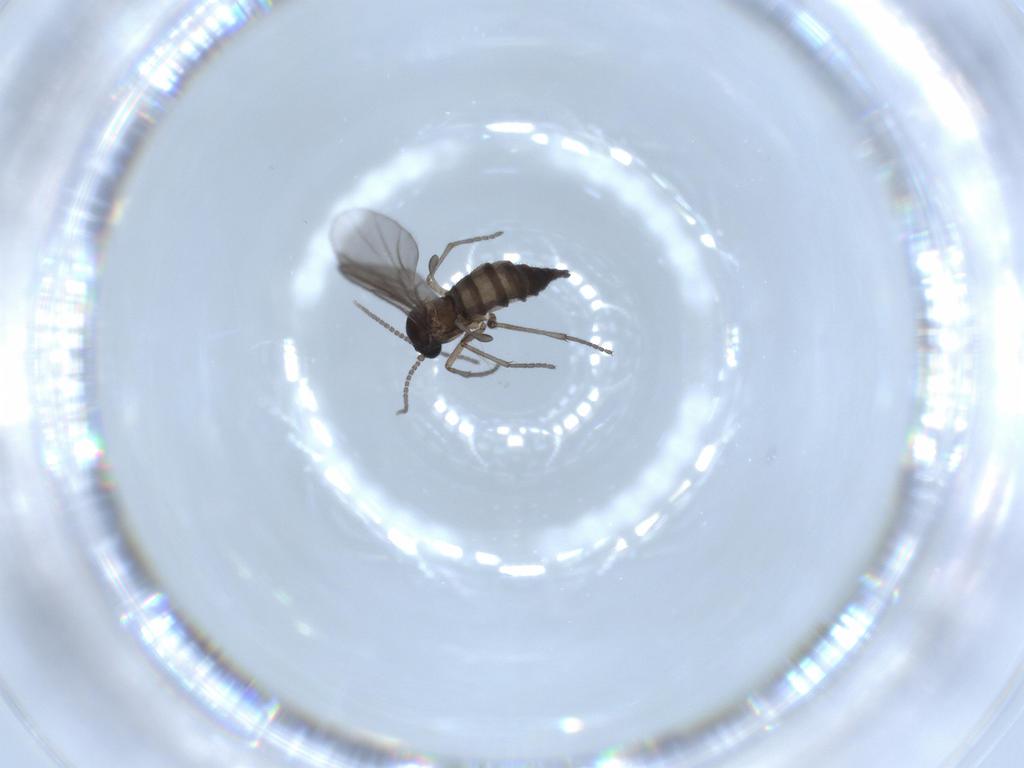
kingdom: Animalia
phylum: Arthropoda
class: Insecta
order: Diptera
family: Sciaridae
